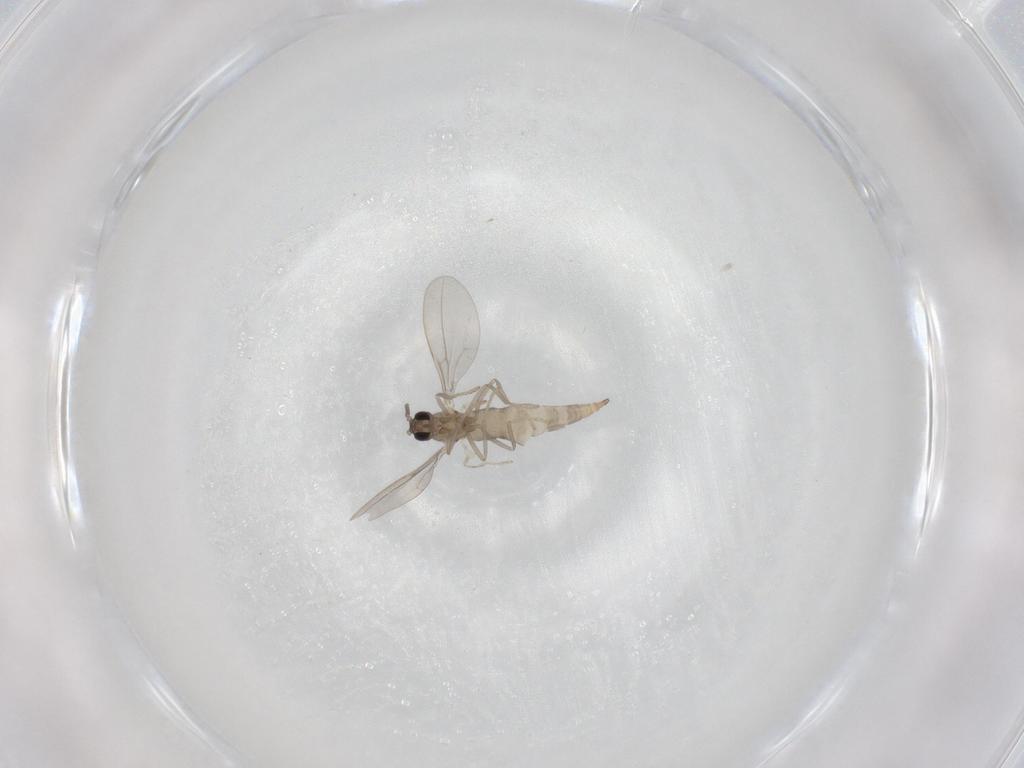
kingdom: Animalia
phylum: Arthropoda
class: Insecta
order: Diptera
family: Cecidomyiidae
